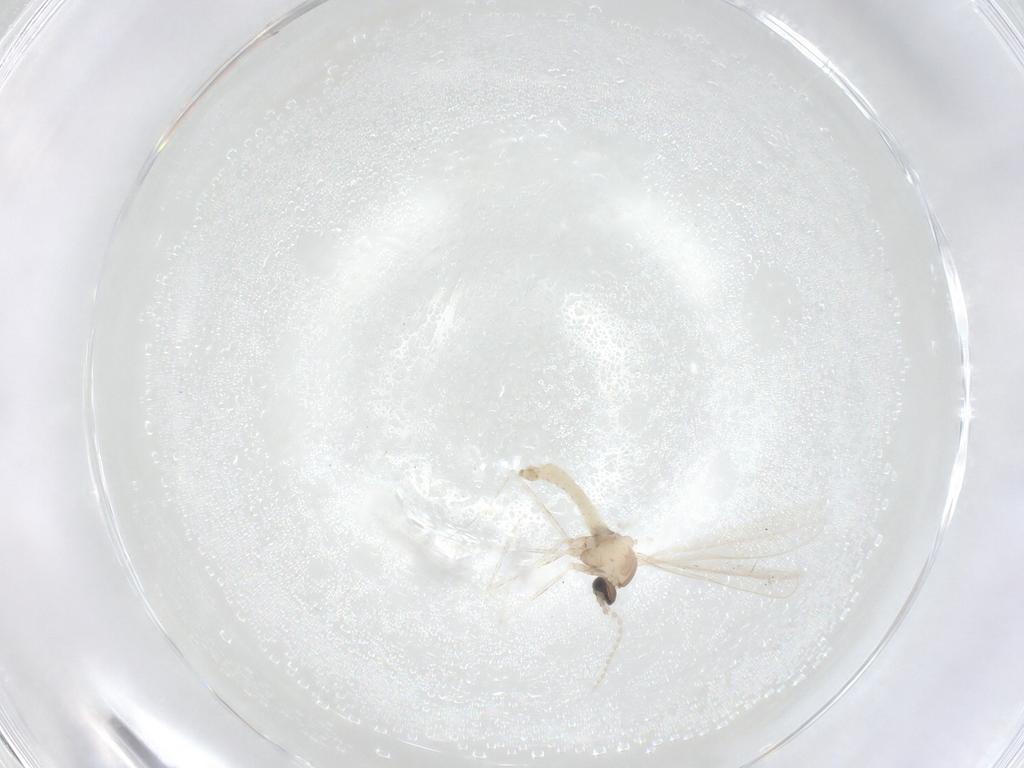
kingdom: Animalia
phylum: Arthropoda
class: Insecta
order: Diptera
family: Cecidomyiidae
